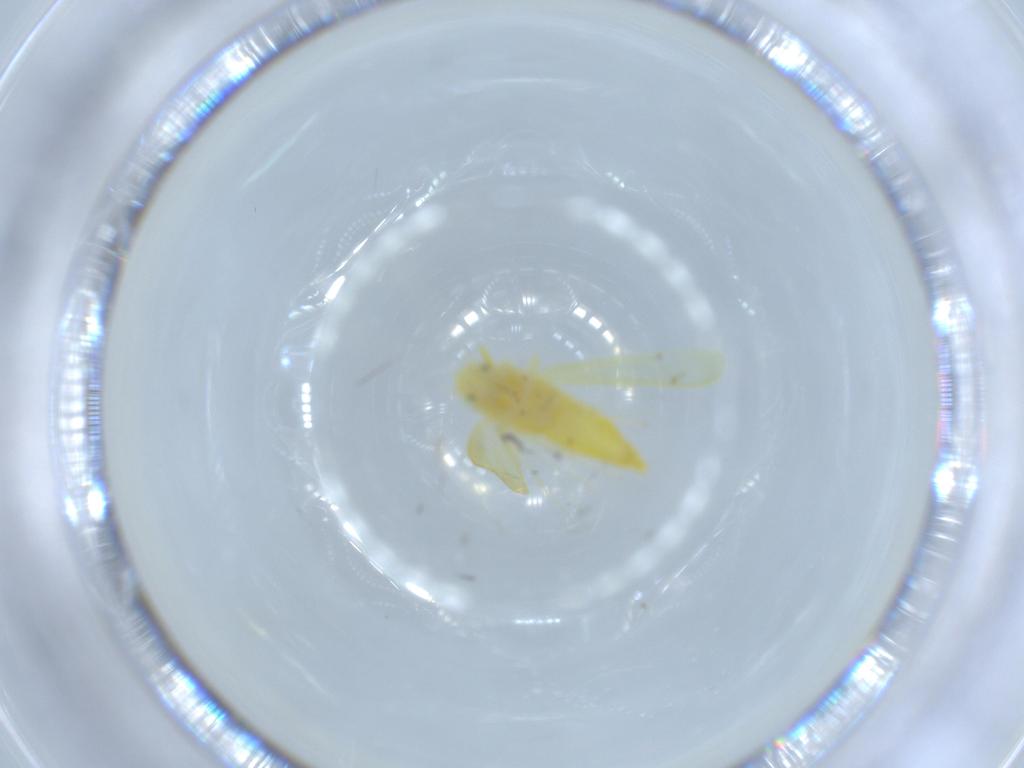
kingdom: Animalia
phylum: Arthropoda
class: Insecta
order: Hemiptera
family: Cicadellidae
